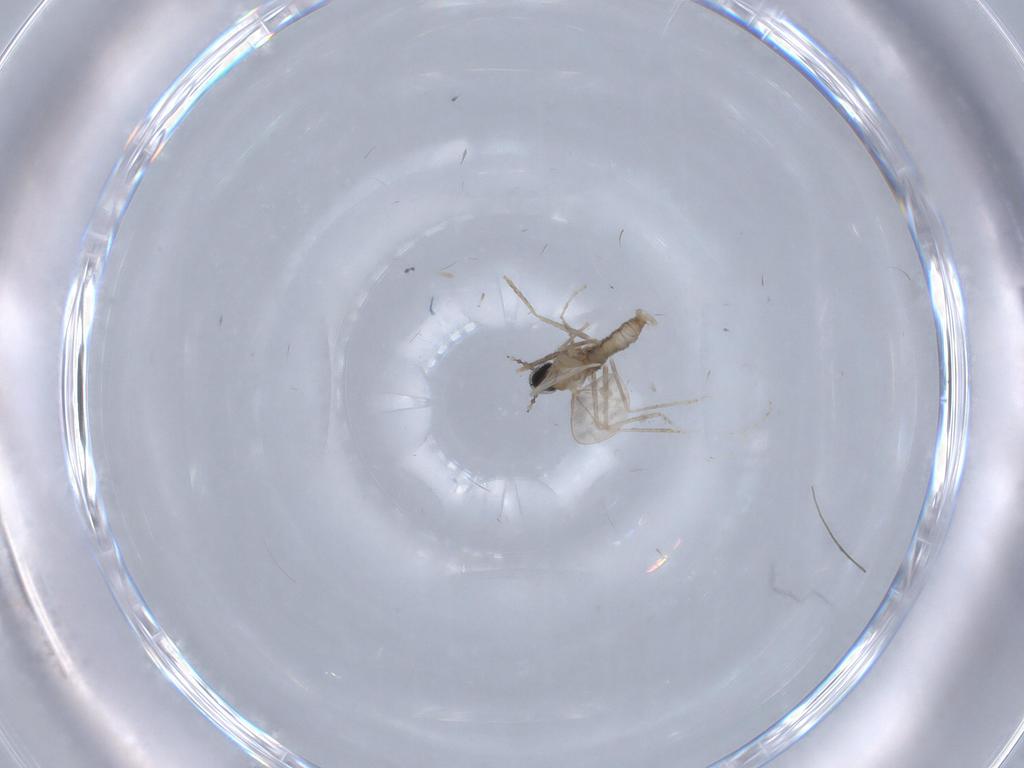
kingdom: Animalia
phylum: Arthropoda
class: Insecta
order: Diptera
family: Cecidomyiidae
